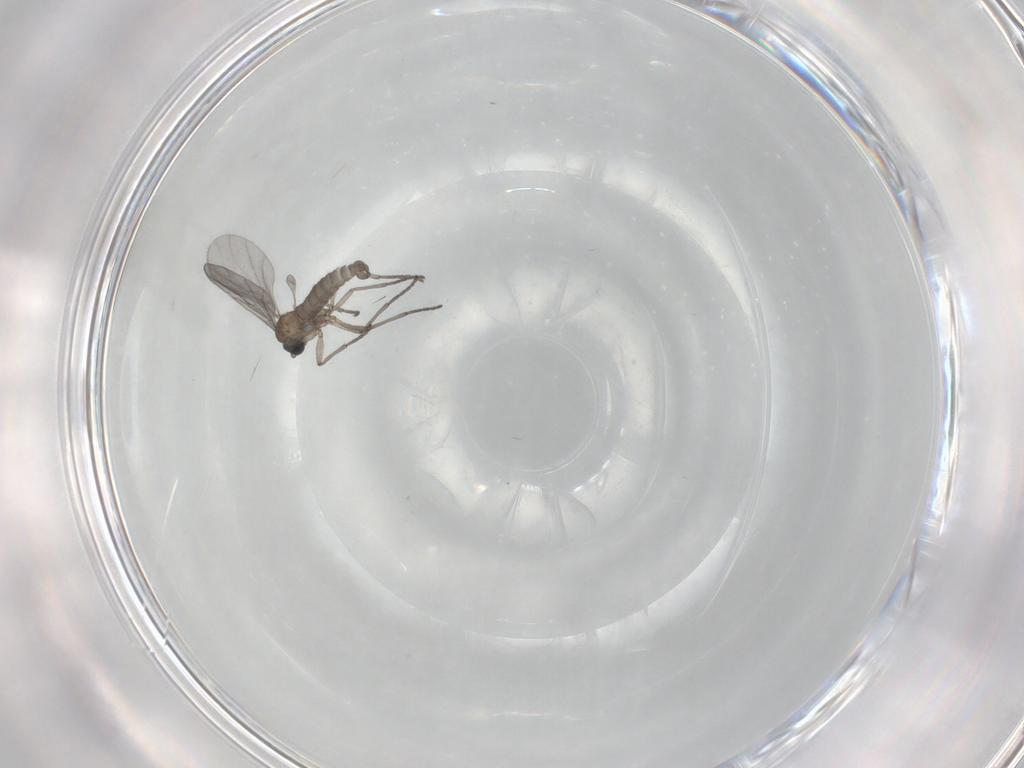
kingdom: Animalia
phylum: Arthropoda
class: Insecta
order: Diptera
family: Sciaridae
